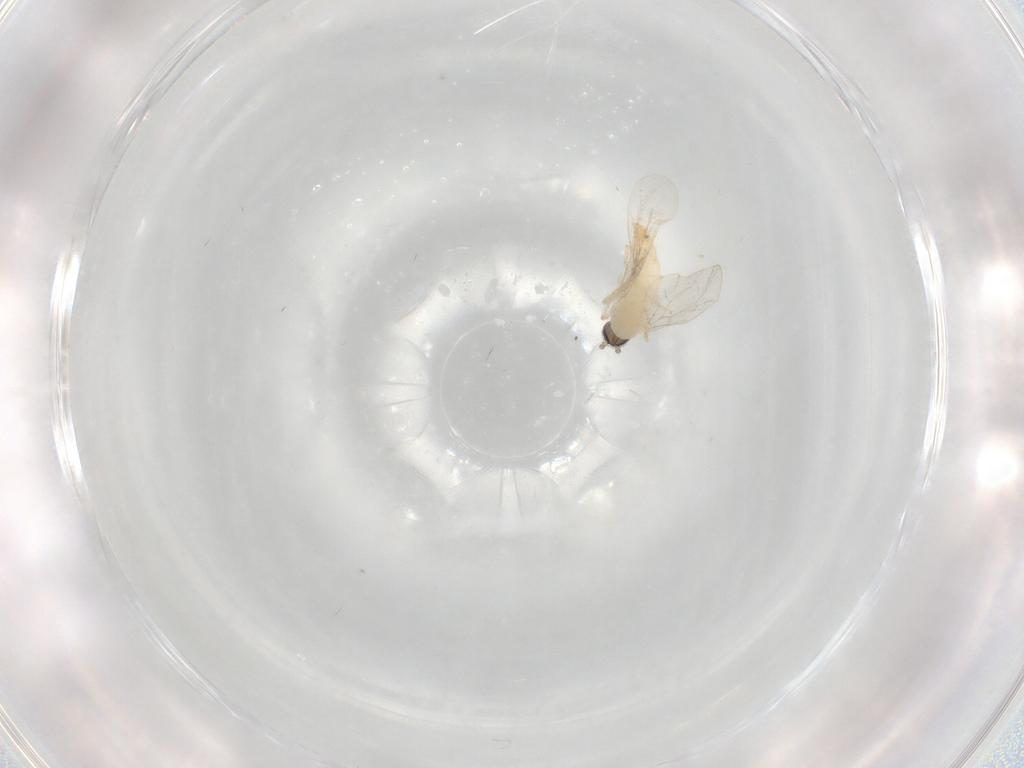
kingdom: Animalia
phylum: Arthropoda
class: Insecta
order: Diptera
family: Cecidomyiidae
